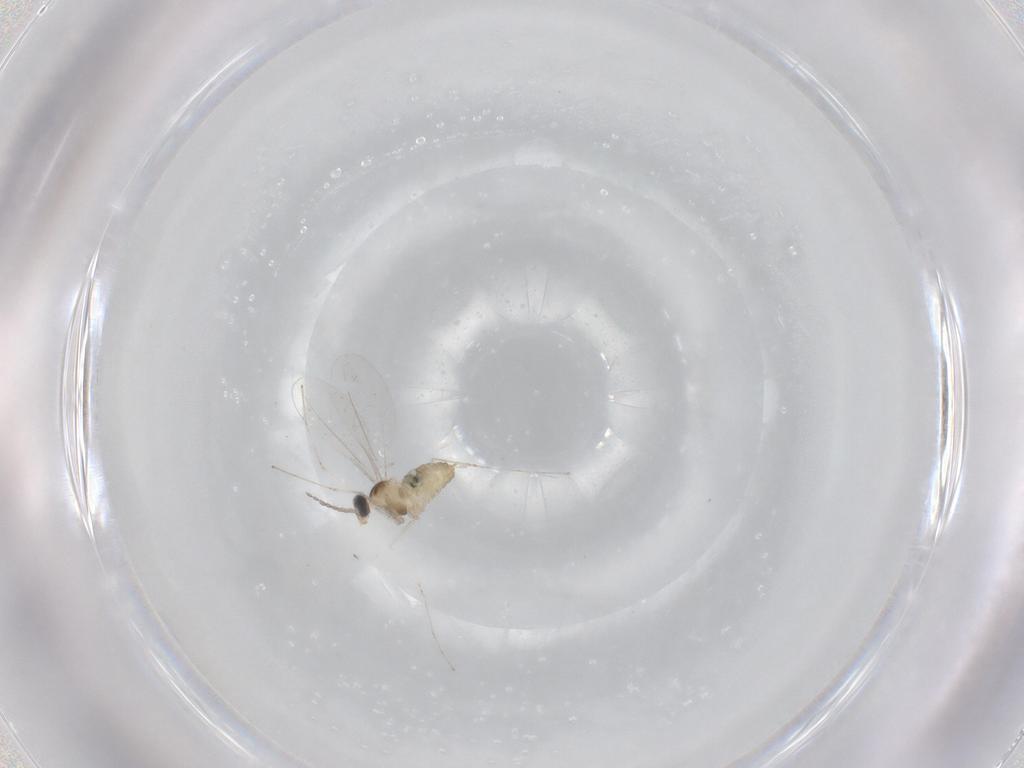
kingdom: Animalia
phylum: Arthropoda
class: Insecta
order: Diptera
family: Cecidomyiidae
